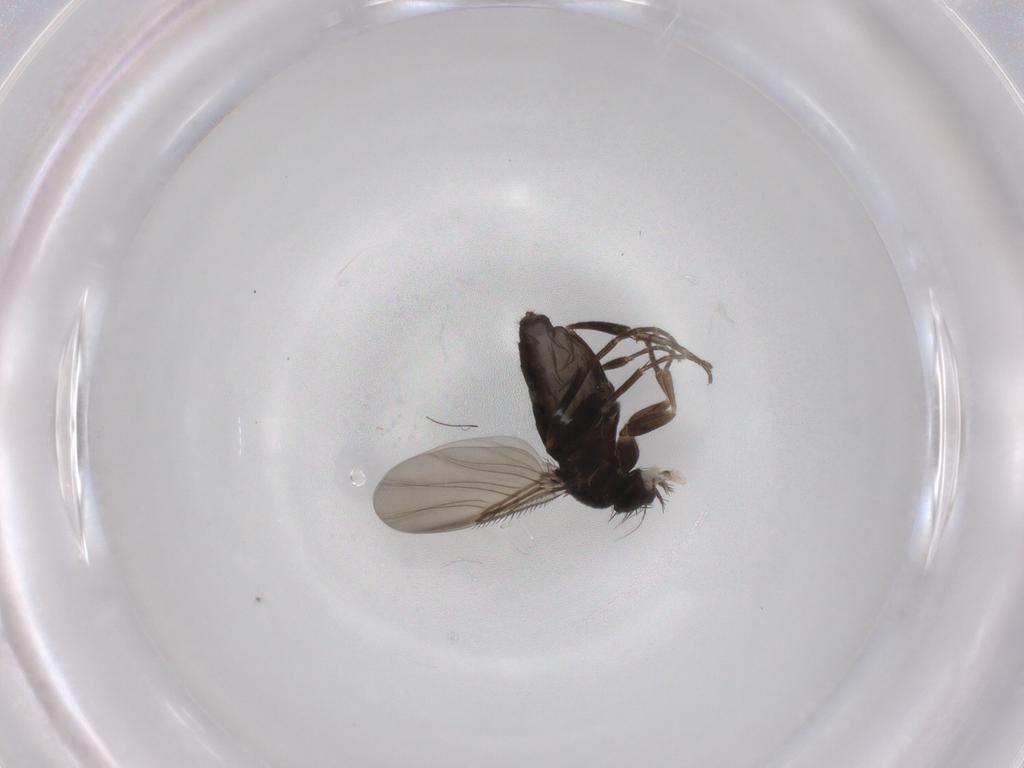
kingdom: Animalia
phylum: Arthropoda
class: Insecta
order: Diptera
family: Phoridae
